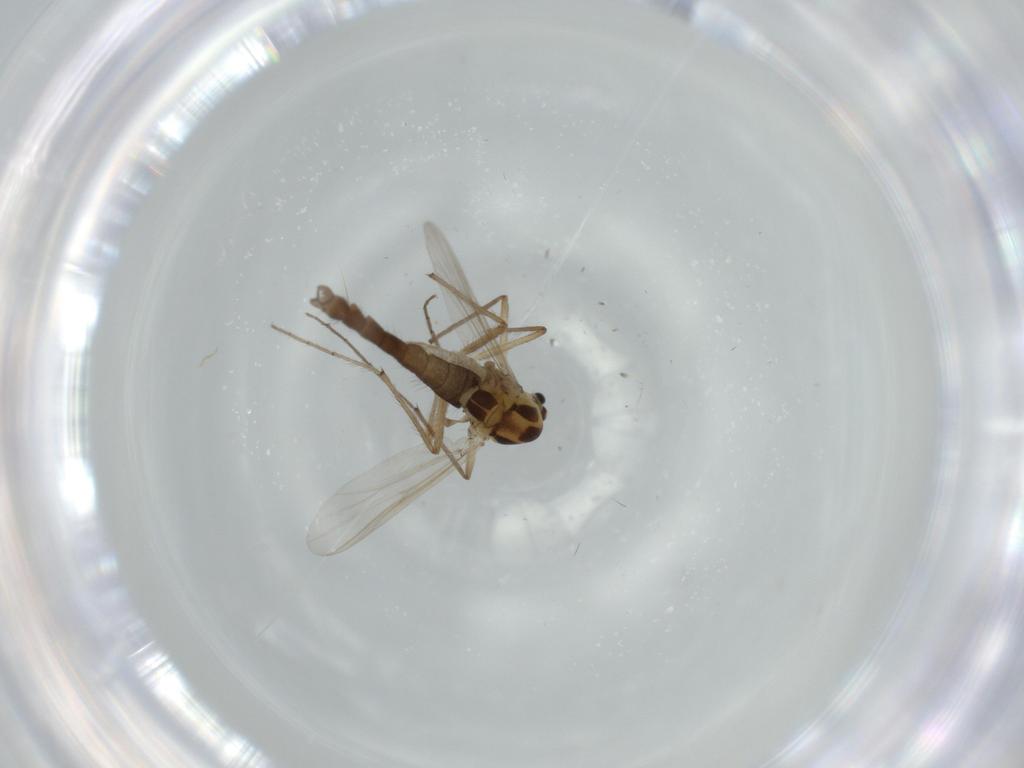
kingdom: Animalia
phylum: Arthropoda
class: Insecta
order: Diptera
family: Chironomidae
